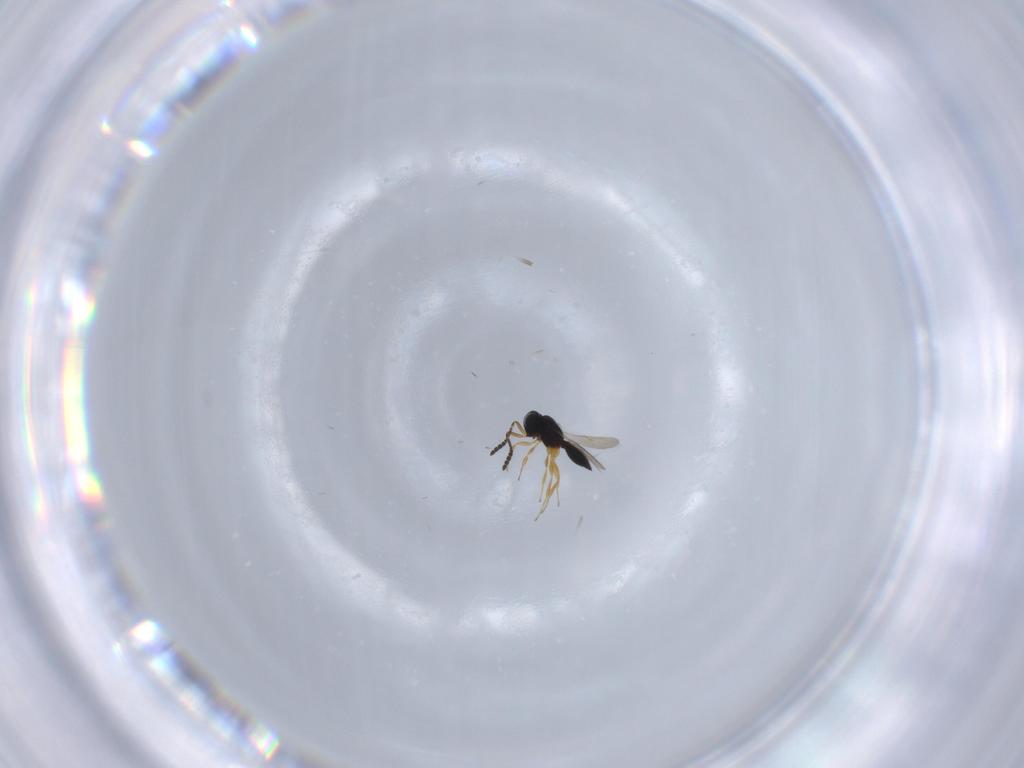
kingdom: Animalia
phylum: Arthropoda
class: Insecta
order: Hymenoptera
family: Scelionidae
